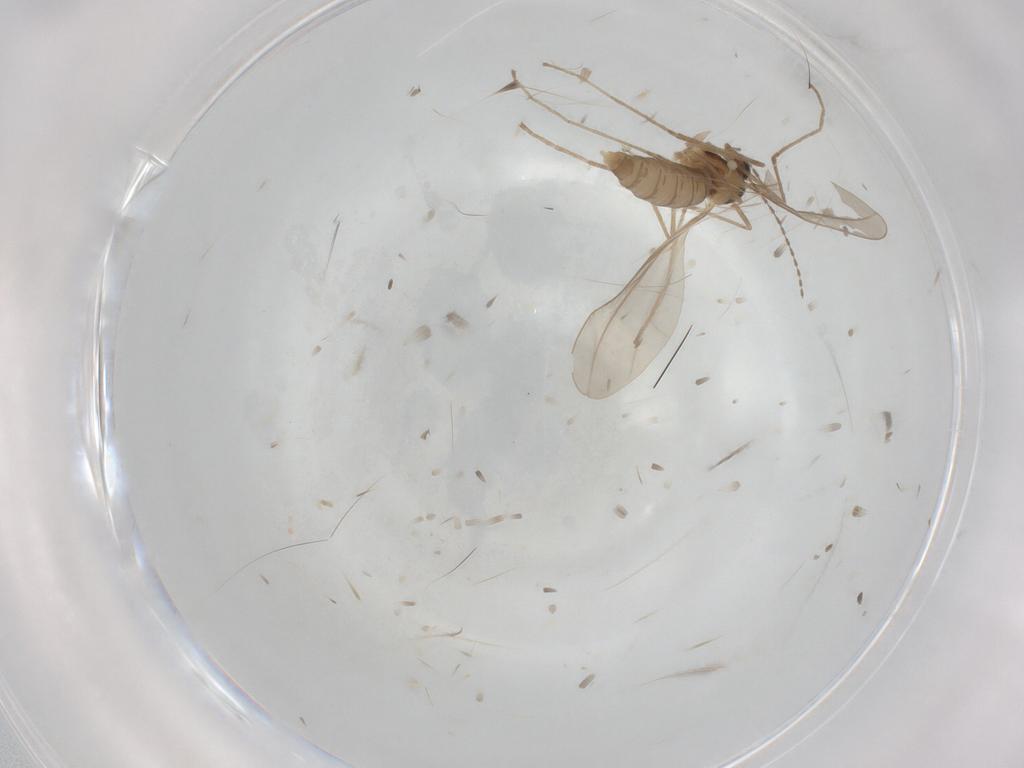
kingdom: Animalia
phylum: Arthropoda
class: Insecta
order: Diptera
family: Cecidomyiidae
